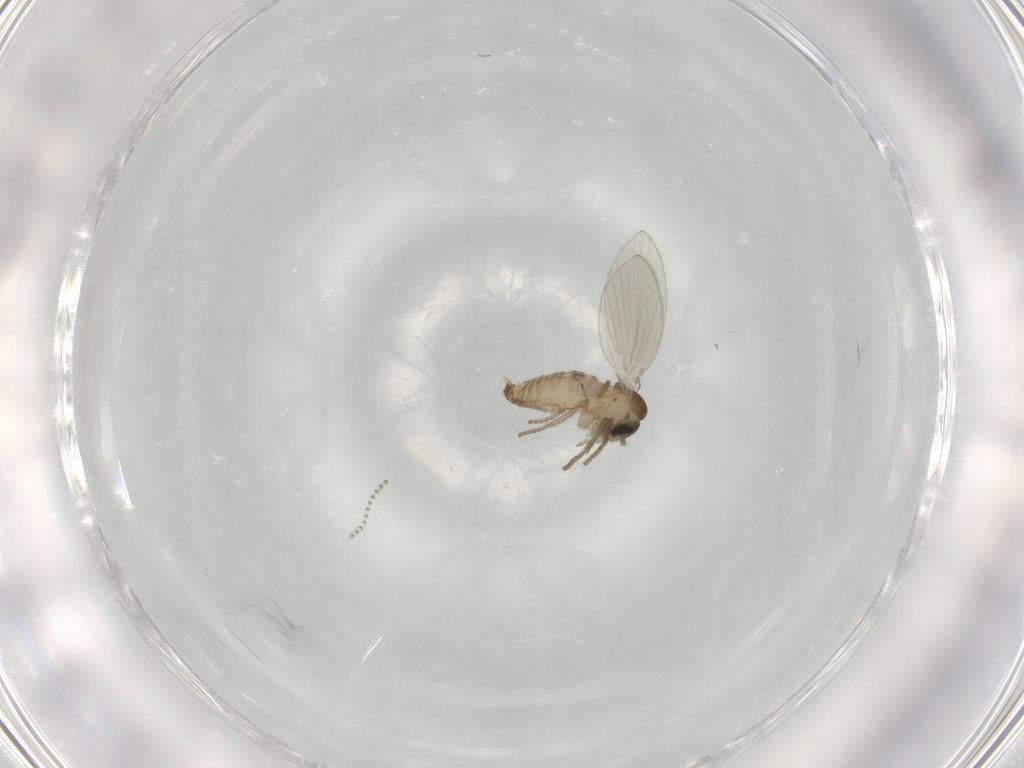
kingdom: Animalia
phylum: Arthropoda
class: Insecta
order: Diptera
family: Psychodidae
